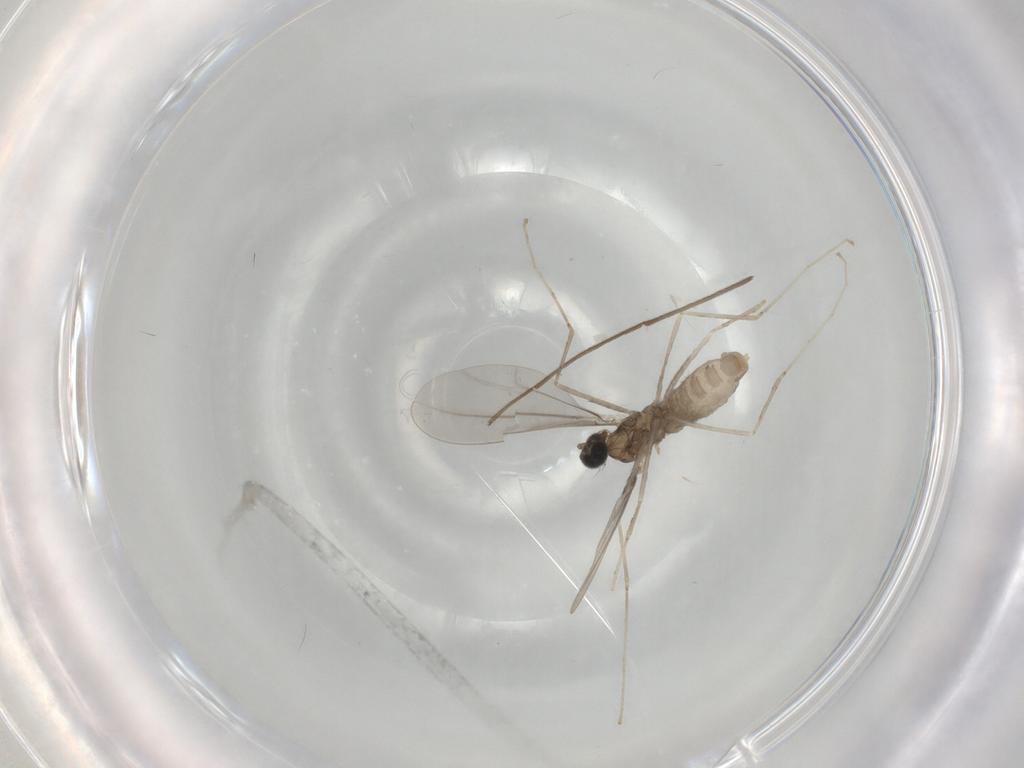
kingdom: Animalia
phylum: Arthropoda
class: Insecta
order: Diptera
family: Cecidomyiidae
